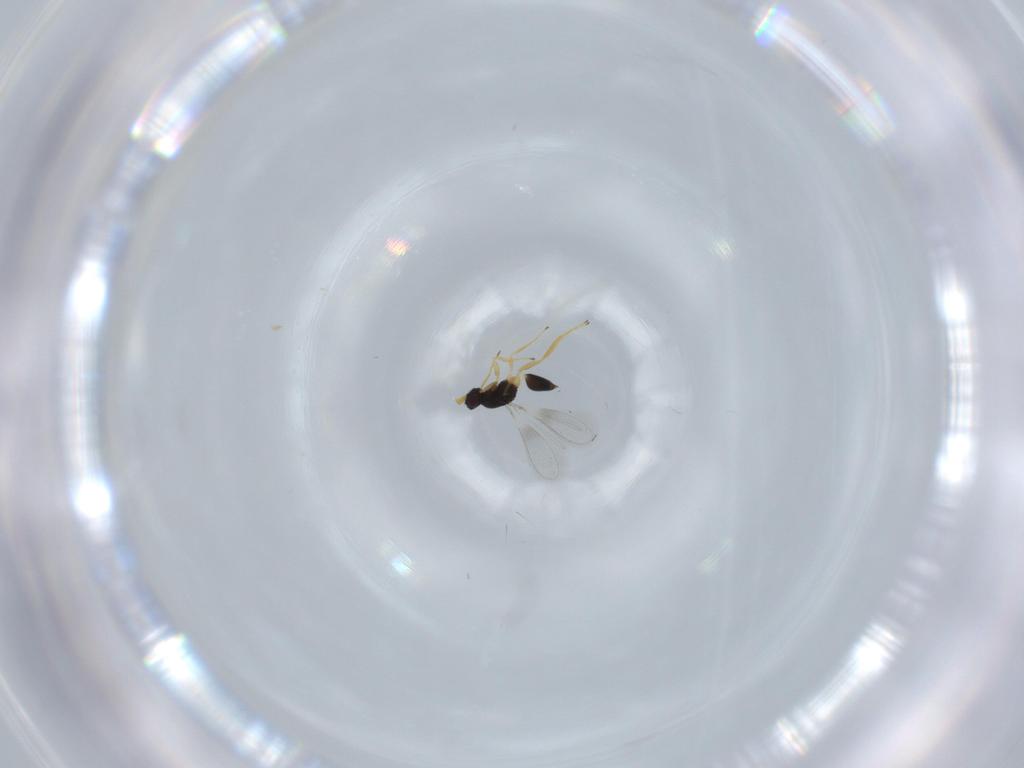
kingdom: Animalia
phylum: Arthropoda
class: Insecta
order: Hymenoptera
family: Mymaridae
